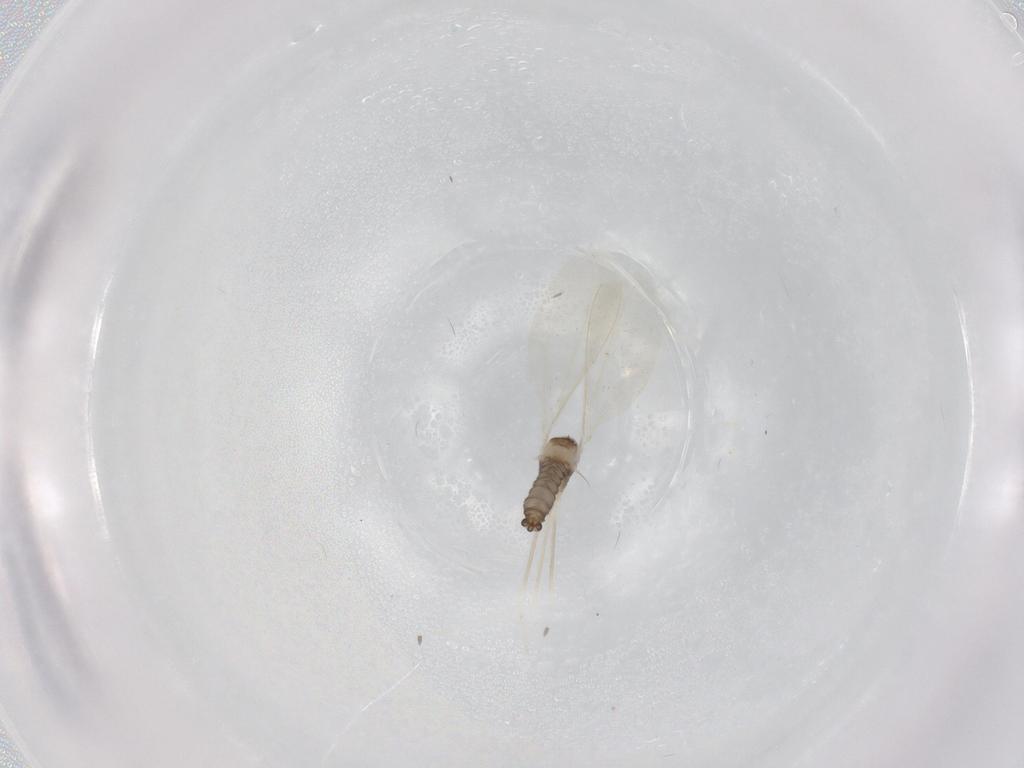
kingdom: Animalia
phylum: Arthropoda
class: Insecta
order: Diptera
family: Cecidomyiidae
